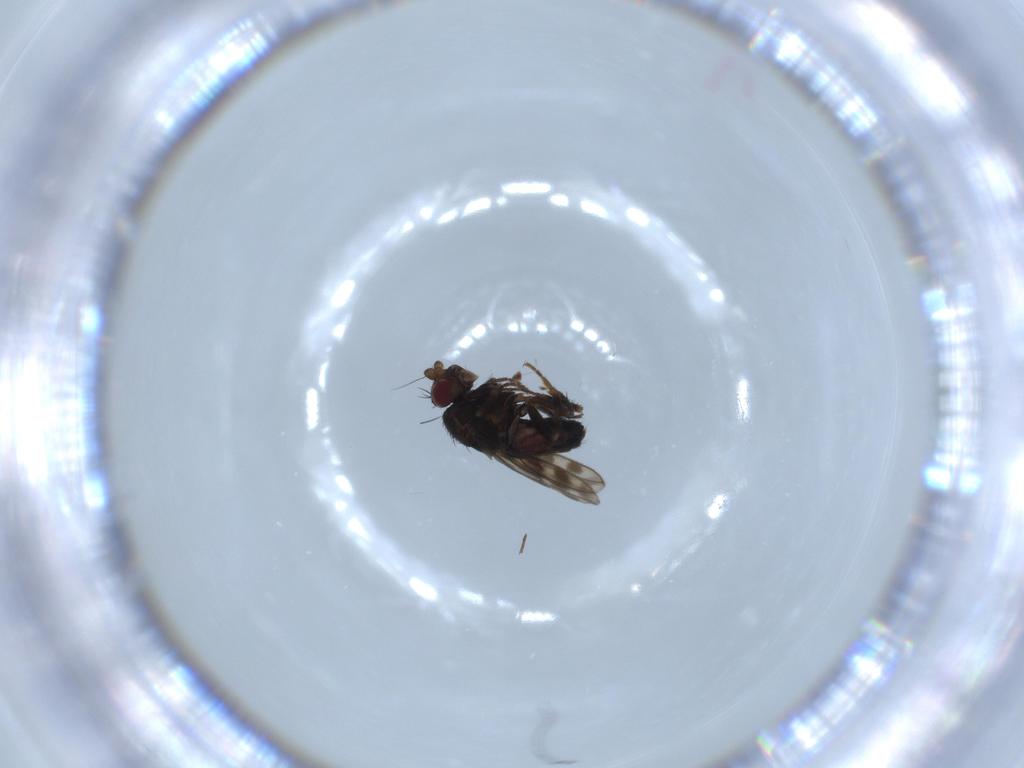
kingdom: Animalia
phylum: Arthropoda
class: Insecta
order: Diptera
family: Sphaeroceridae
